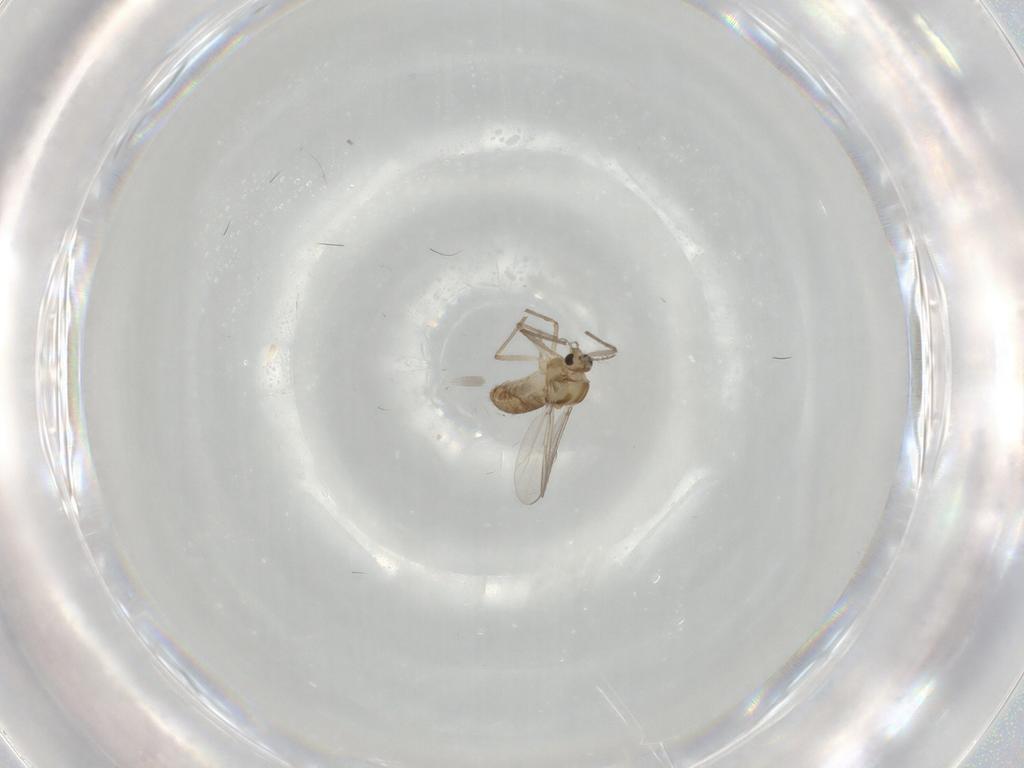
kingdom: Animalia
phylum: Arthropoda
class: Insecta
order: Diptera
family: Chironomidae
